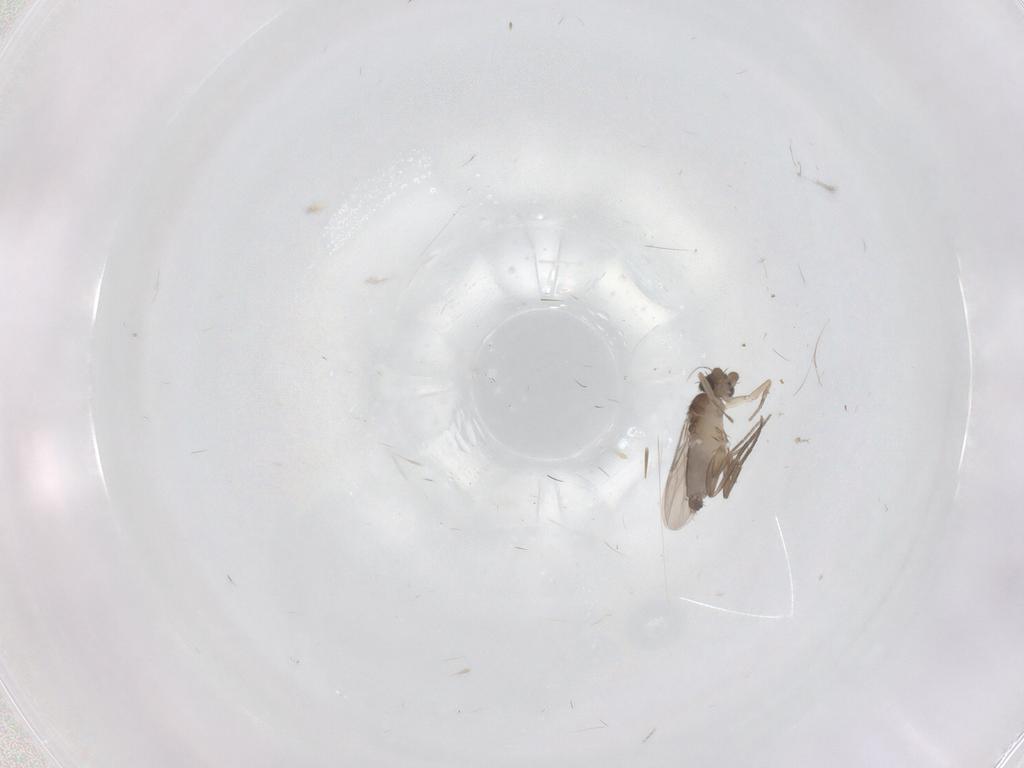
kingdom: Animalia
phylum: Arthropoda
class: Insecta
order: Diptera
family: Phoridae
